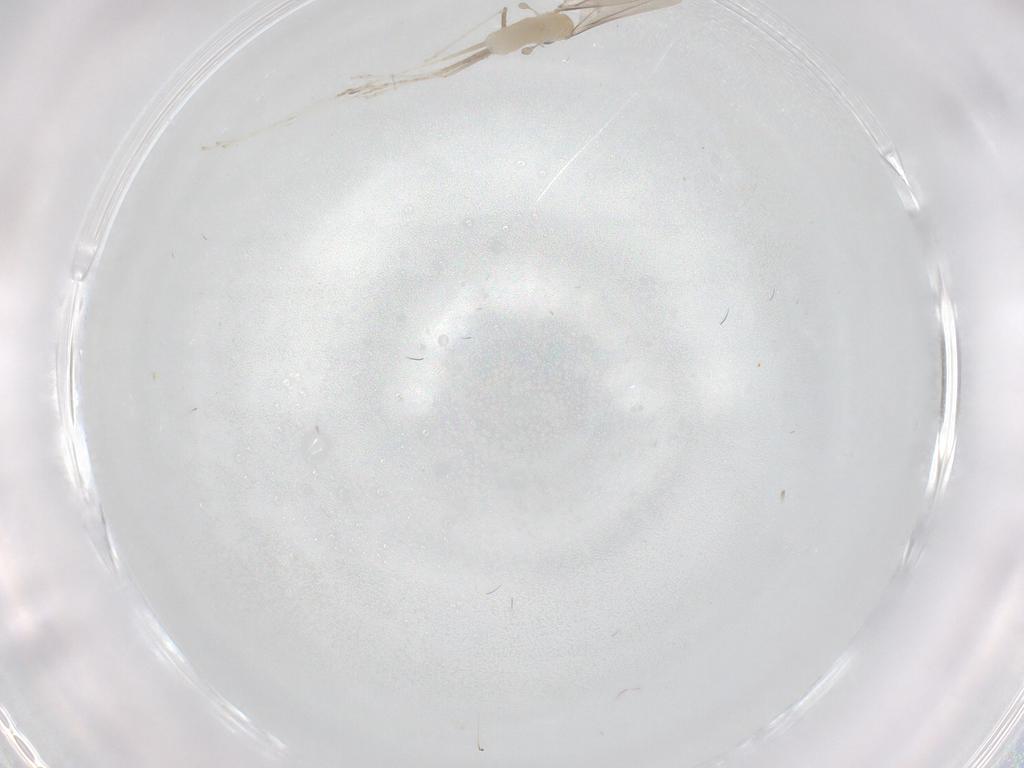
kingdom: Animalia
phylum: Arthropoda
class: Insecta
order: Diptera
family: Cecidomyiidae
